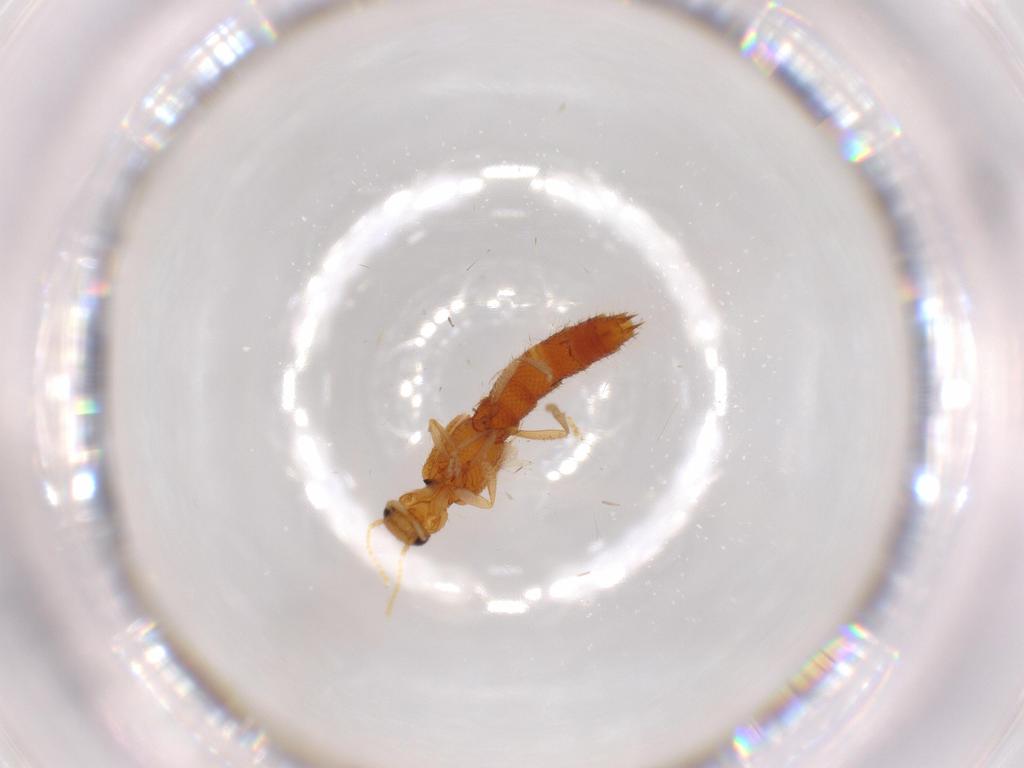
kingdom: Animalia
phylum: Arthropoda
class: Insecta
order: Coleoptera
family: Staphylinidae
